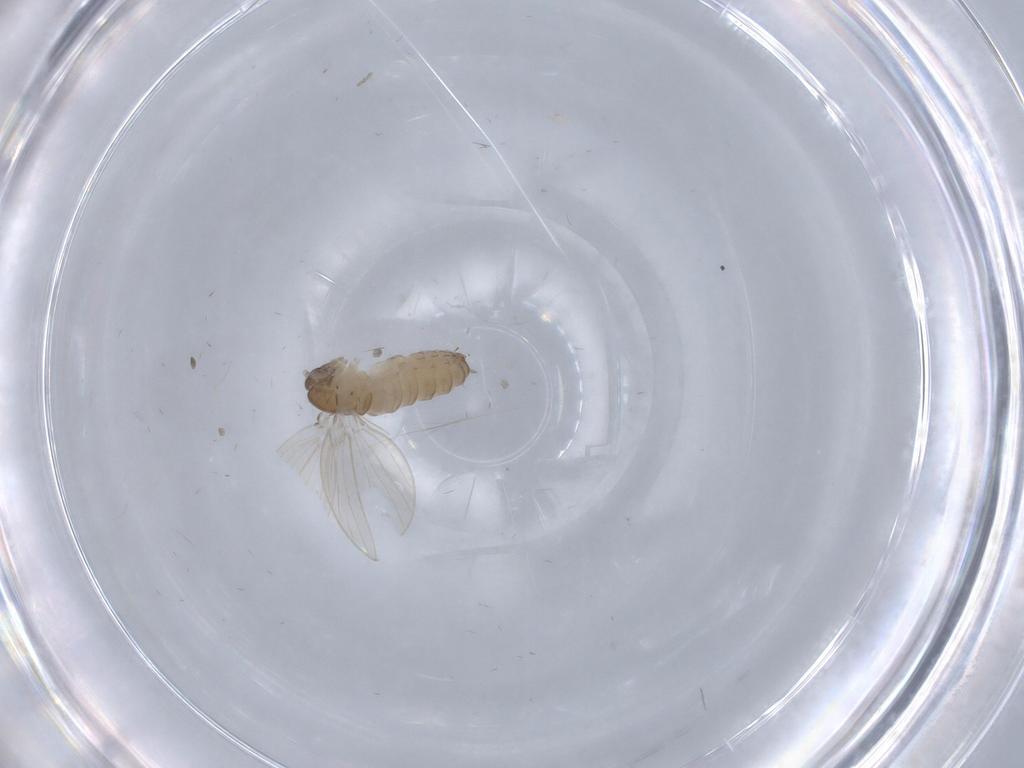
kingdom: Animalia
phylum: Arthropoda
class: Insecta
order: Diptera
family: Psychodidae
